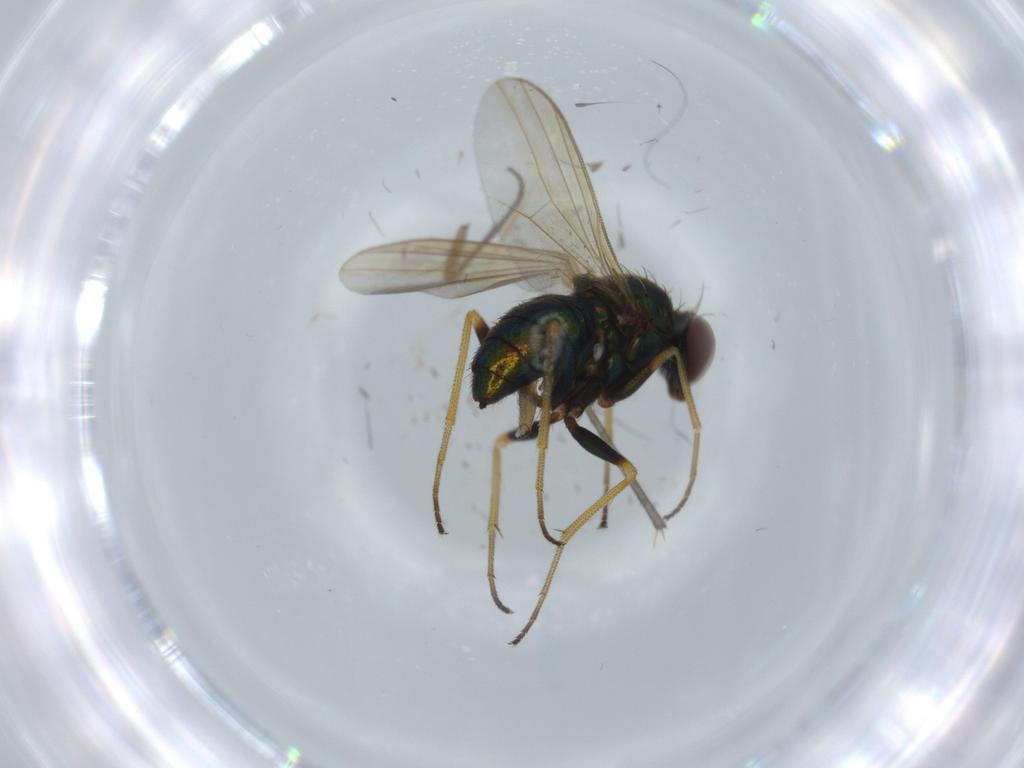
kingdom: Animalia
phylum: Arthropoda
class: Insecta
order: Diptera
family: Dolichopodidae
